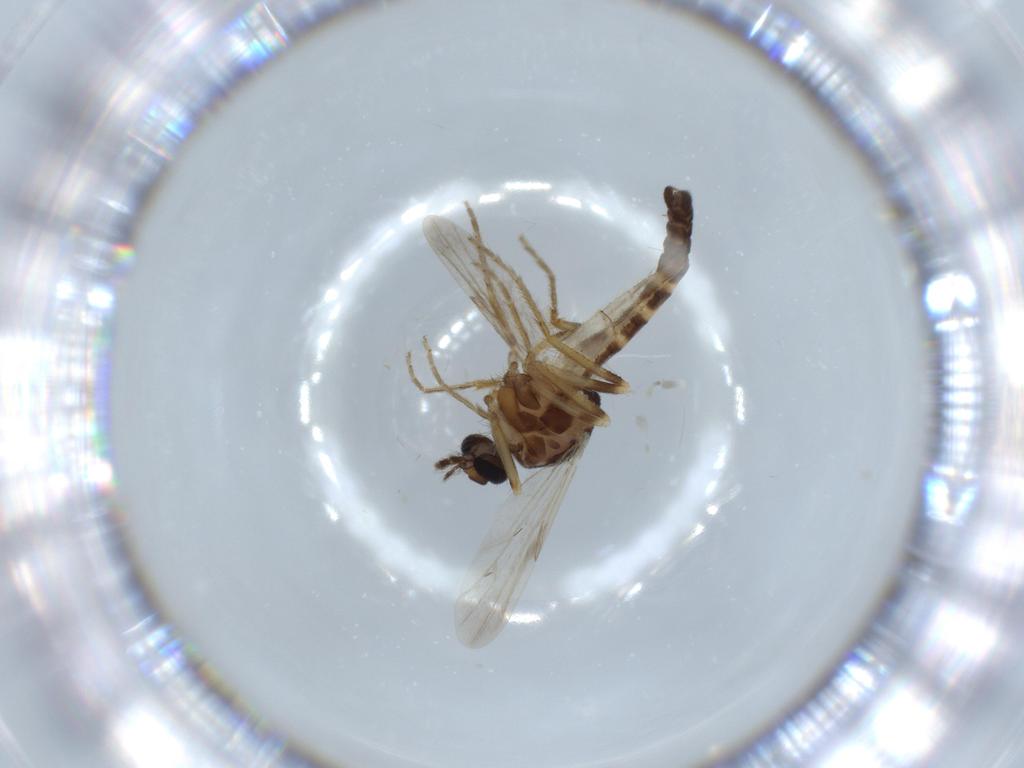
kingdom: Animalia
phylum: Arthropoda
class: Insecta
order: Diptera
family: Ceratopogonidae
